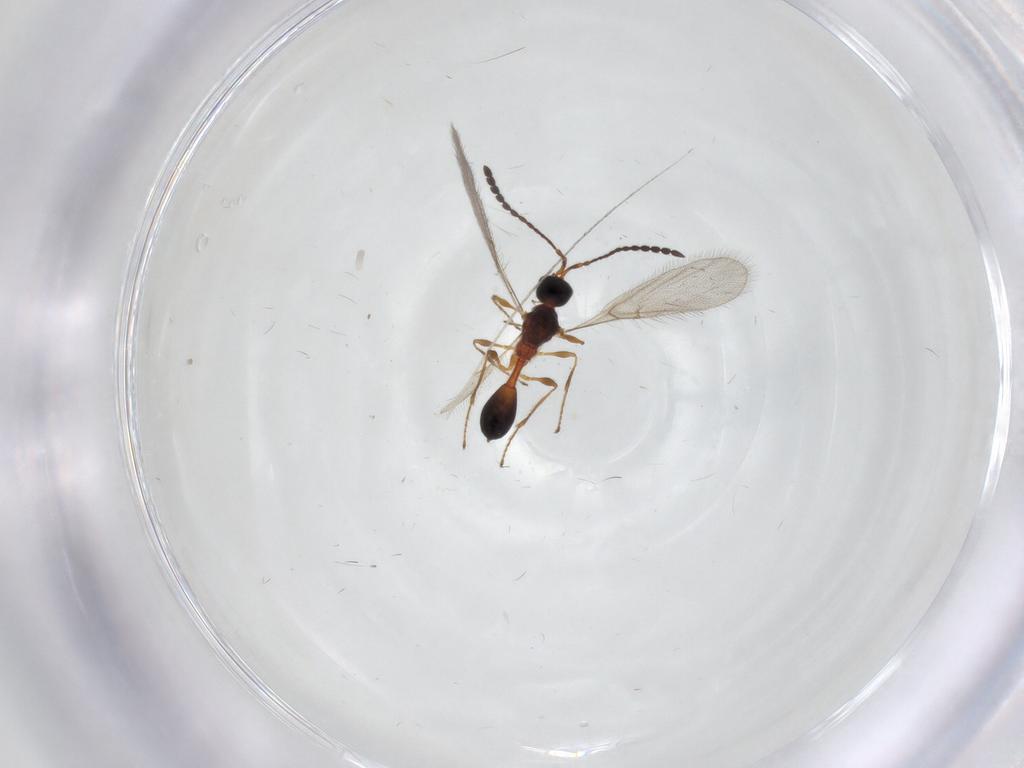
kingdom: Animalia
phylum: Arthropoda
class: Insecta
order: Hymenoptera
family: Diapriidae
